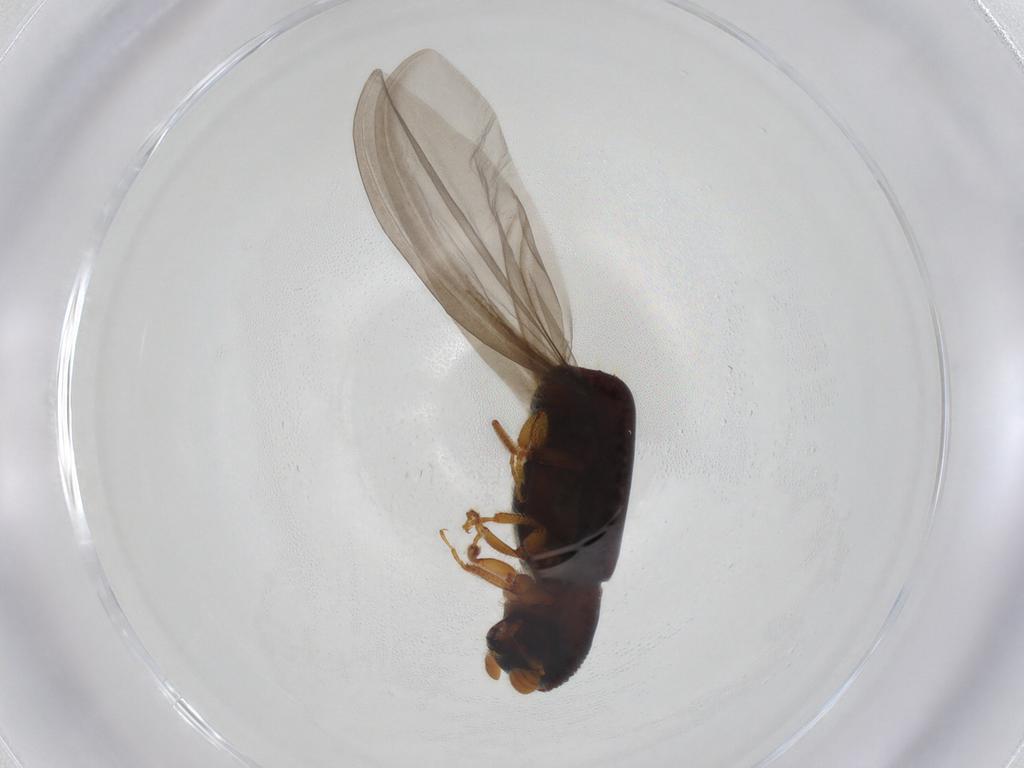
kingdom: Animalia
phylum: Arthropoda
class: Insecta
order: Coleoptera
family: Curculionidae
